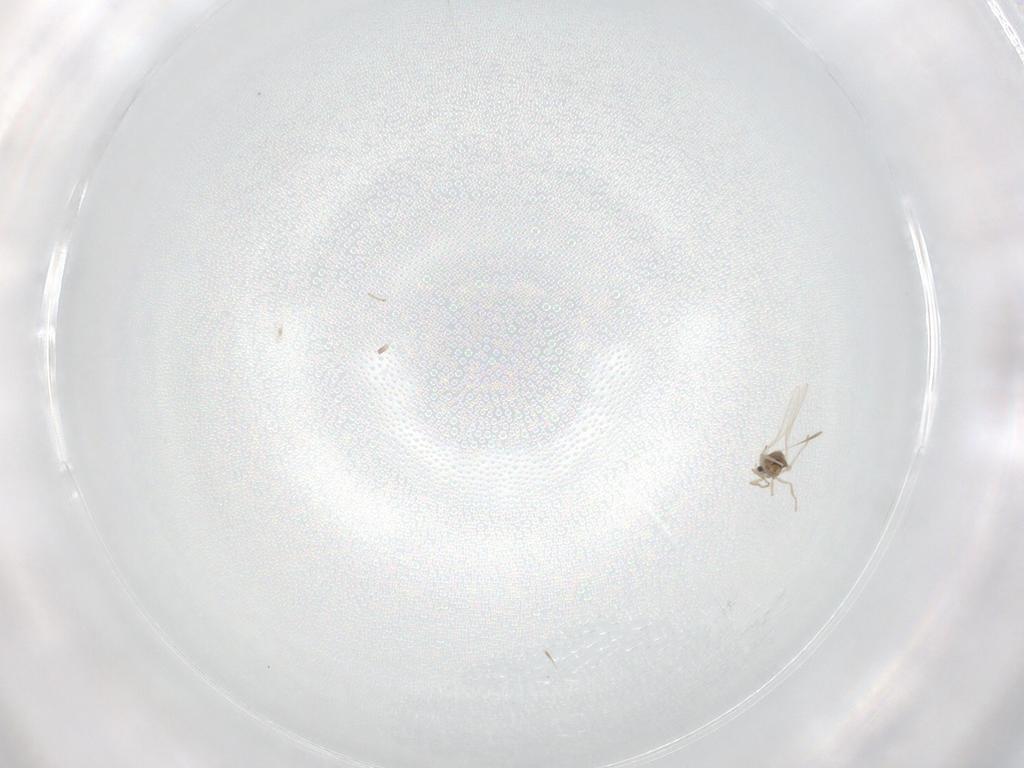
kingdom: Animalia
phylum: Arthropoda
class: Insecta
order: Diptera
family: Cecidomyiidae
